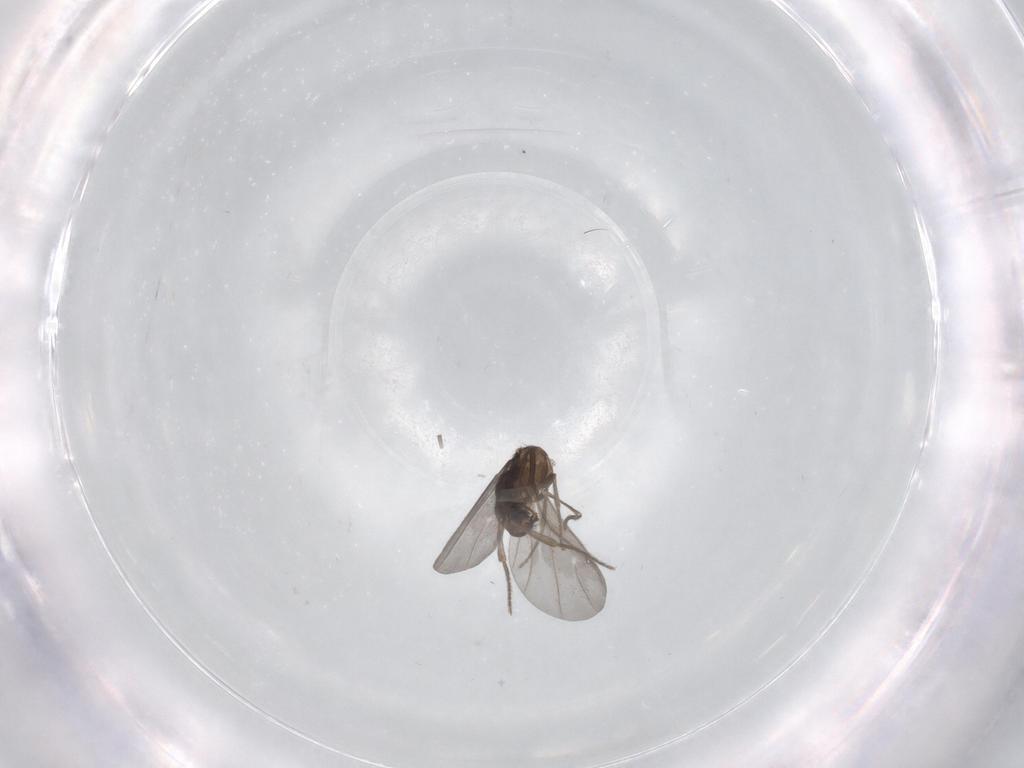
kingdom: Animalia
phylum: Arthropoda
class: Insecta
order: Diptera
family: Phoridae
